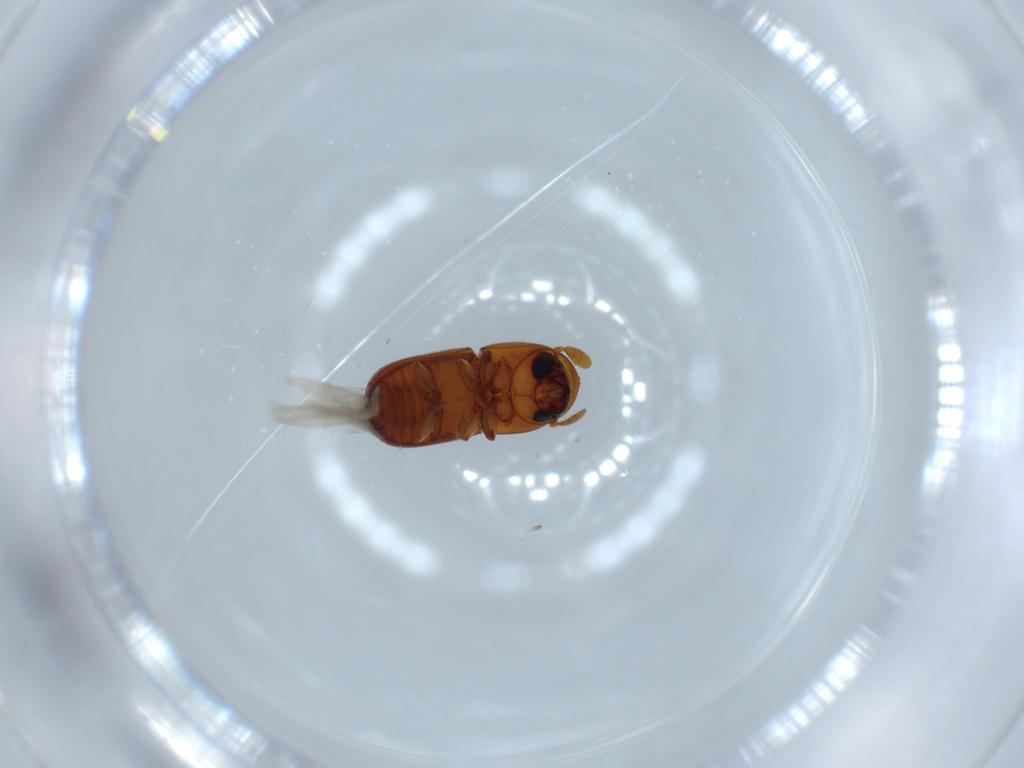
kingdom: Animalia
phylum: Arthropoda
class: Insecta
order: Coleoptera
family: Curculionidae
